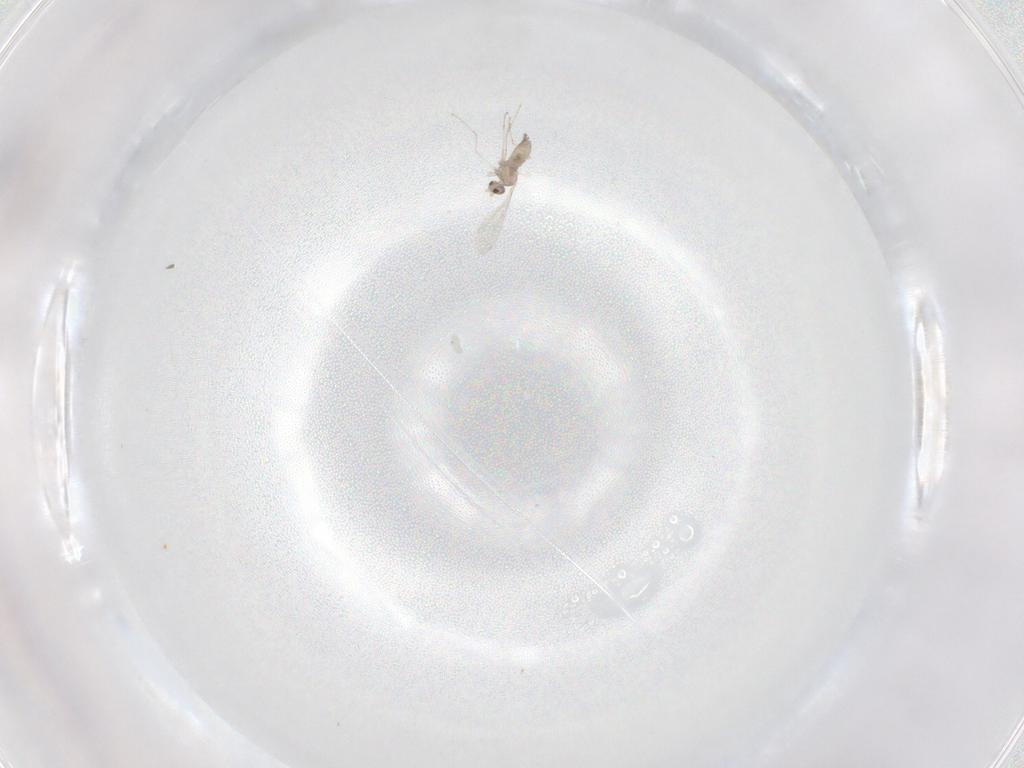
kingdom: Animalia
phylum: Arthropoda
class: Insecta
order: Diptera
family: Cecidomyiidae
